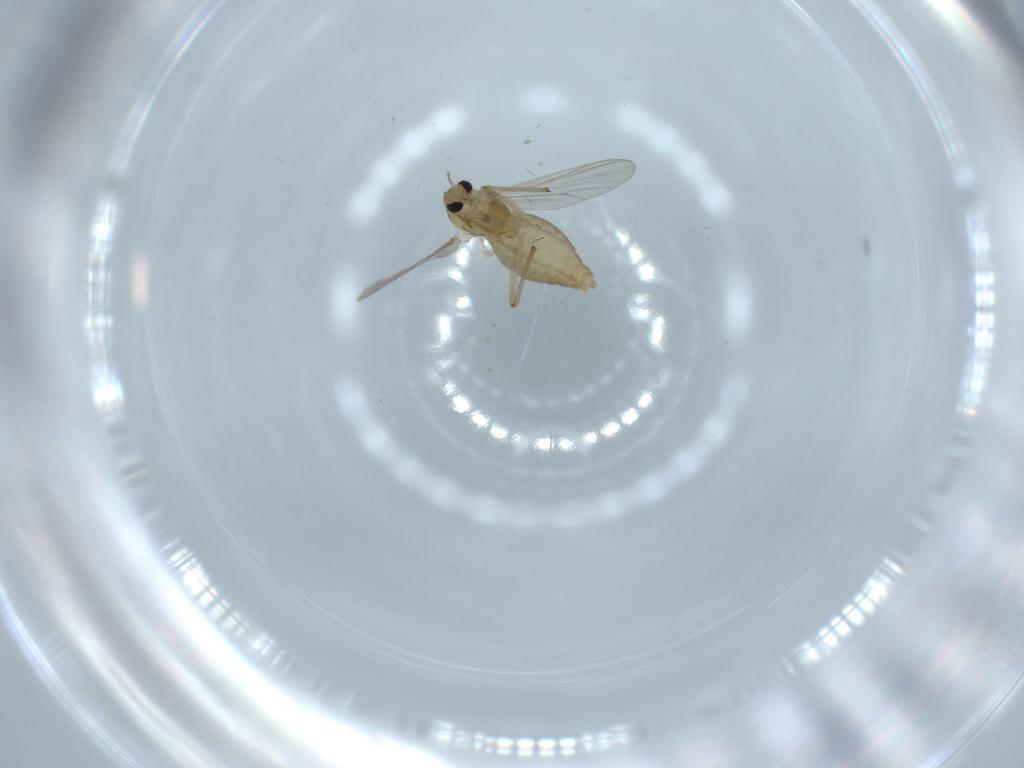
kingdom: Animalia
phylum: Arthropoda
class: Insecta
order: Diptera
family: Chironomidae
